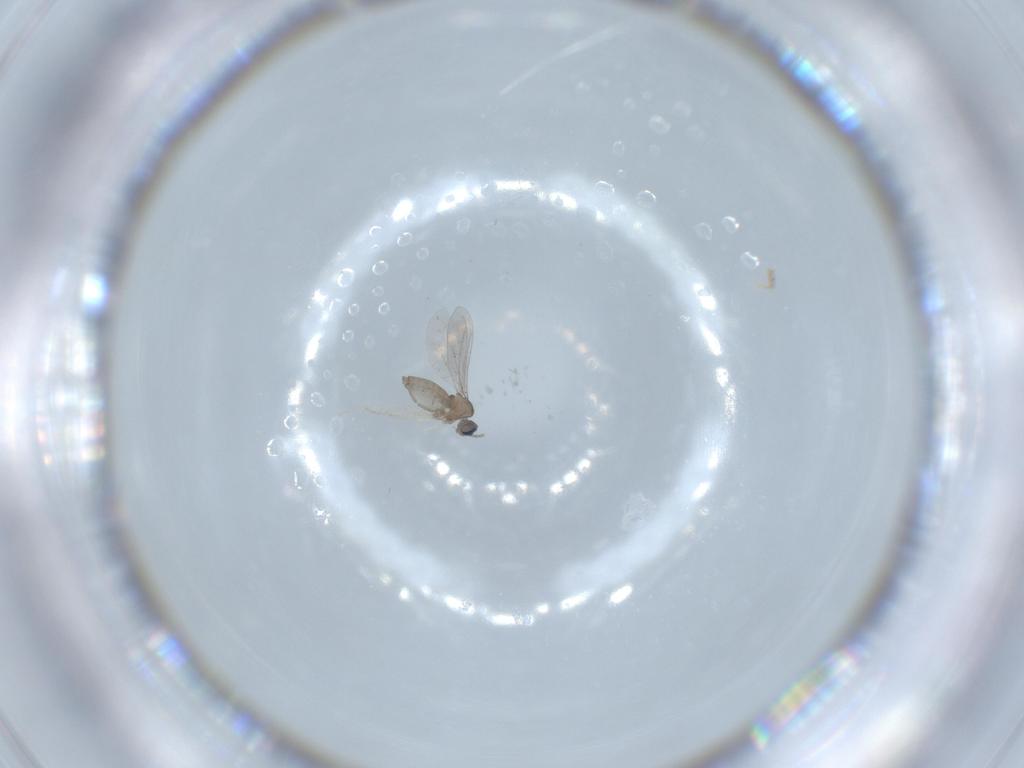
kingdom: Animalia
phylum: Arthropoda
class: Insecta
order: Diptera
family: Cecidomyiidae
